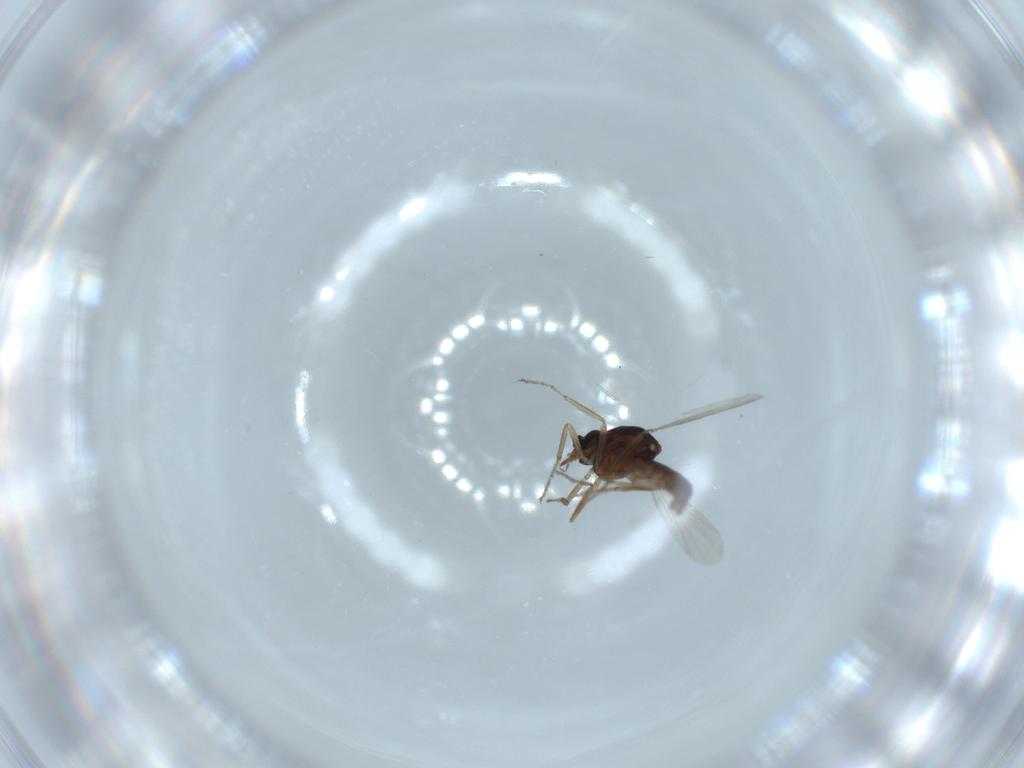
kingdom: Animalia
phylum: Arthropoda
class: Insecta
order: Diptera
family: Ceratopogonidae
